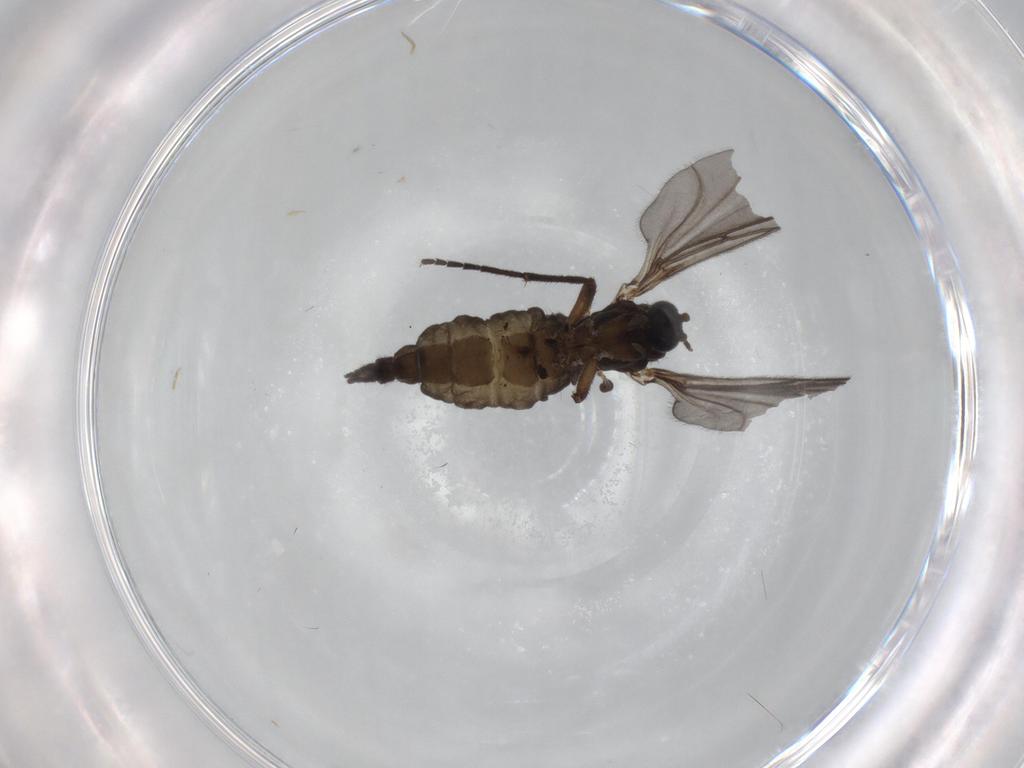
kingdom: Animalia
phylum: Arthropoda
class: Insecta
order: Diptera
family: Sciaridae
